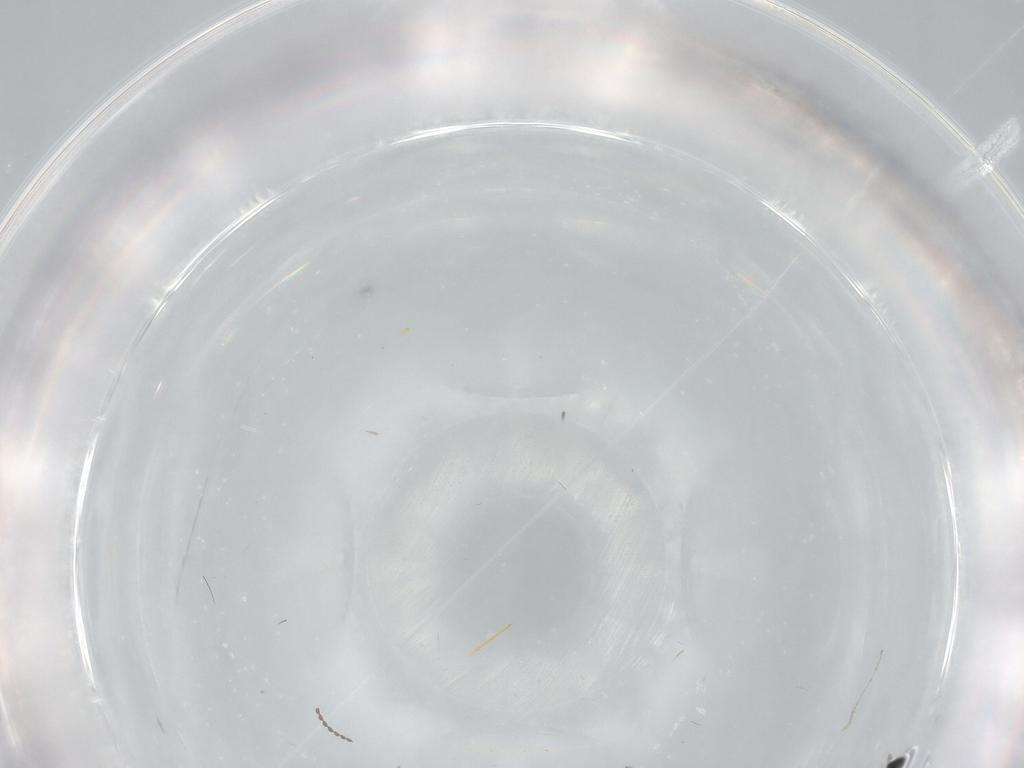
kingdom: Animalia
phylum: Arthropoda
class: Insecta
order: Diptera
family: Cecidomyiidae
